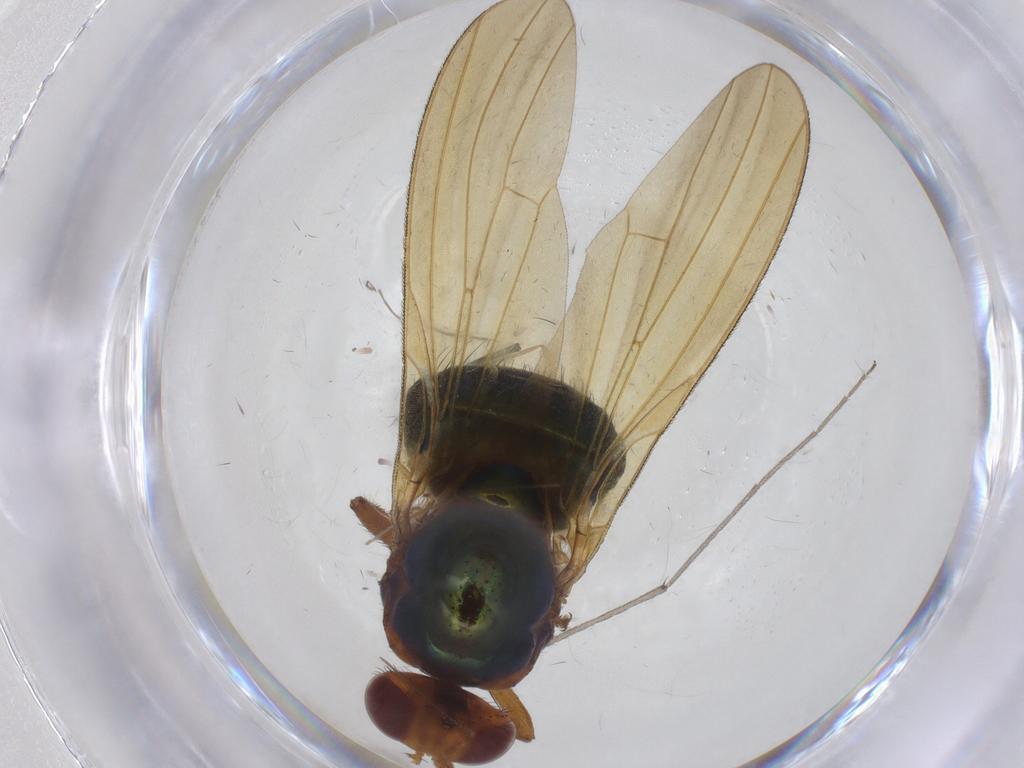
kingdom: Animalia
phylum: Arthropoda
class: Insecta
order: Diptera
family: Chironomidae
